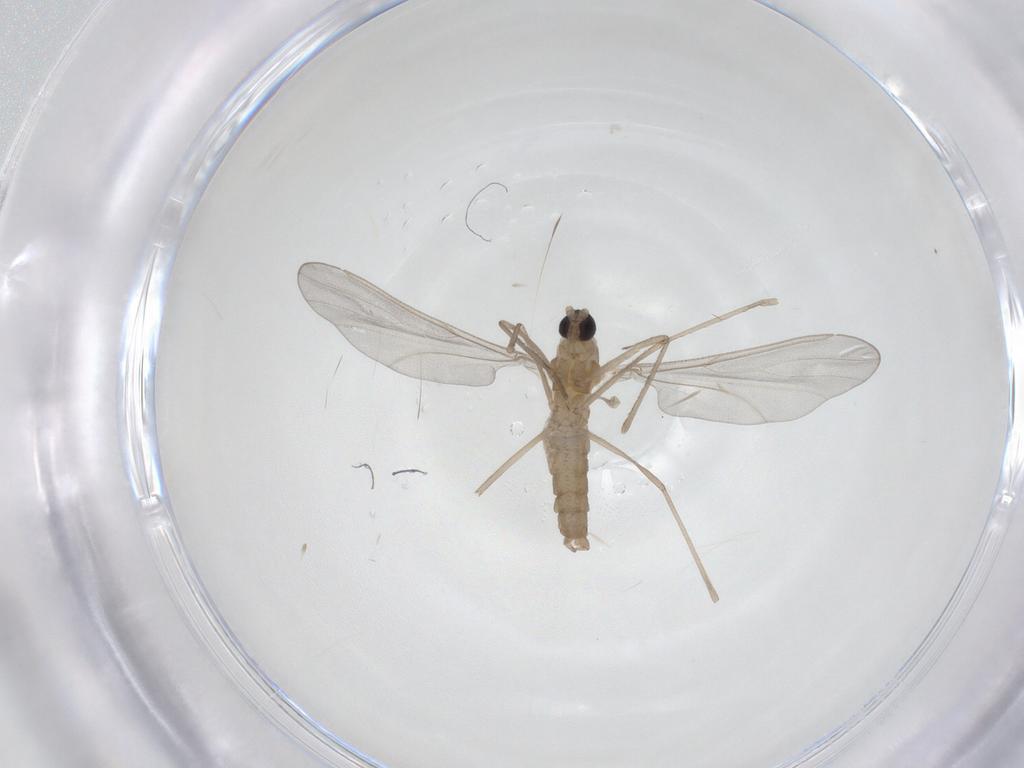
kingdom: Animalia
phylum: Arthropoda
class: Insecta
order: Diptera
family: Cecidomyiidae
